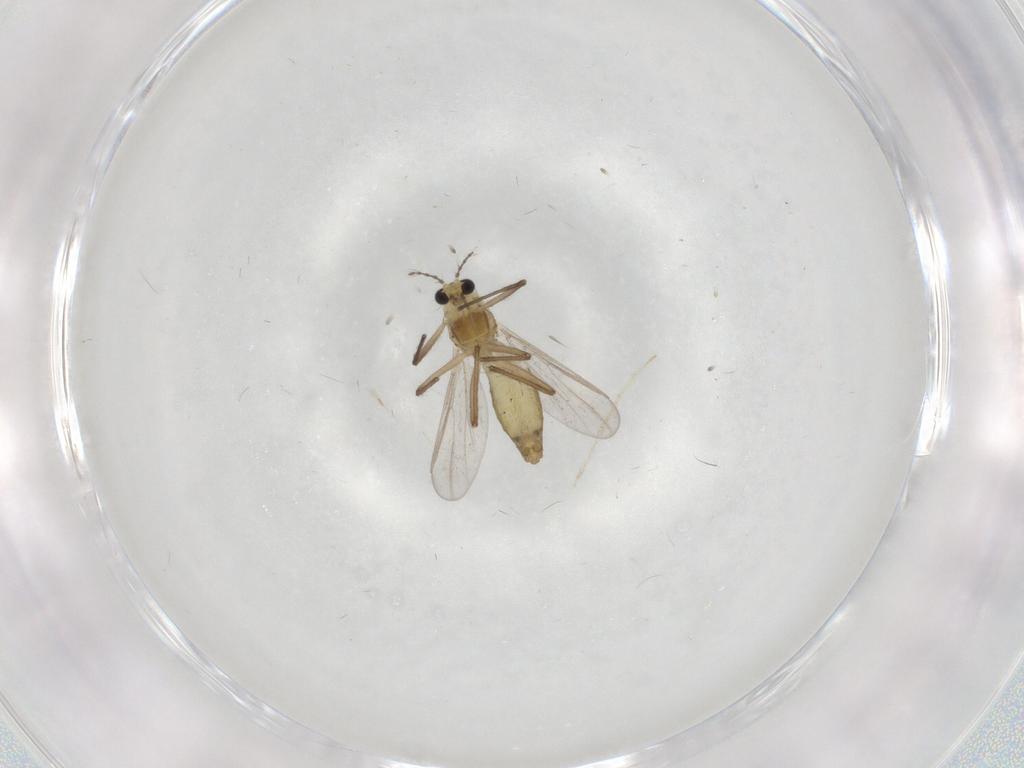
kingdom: Animalia
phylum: Arthropoda
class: Insecta
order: Diptera
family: Chironomidae
